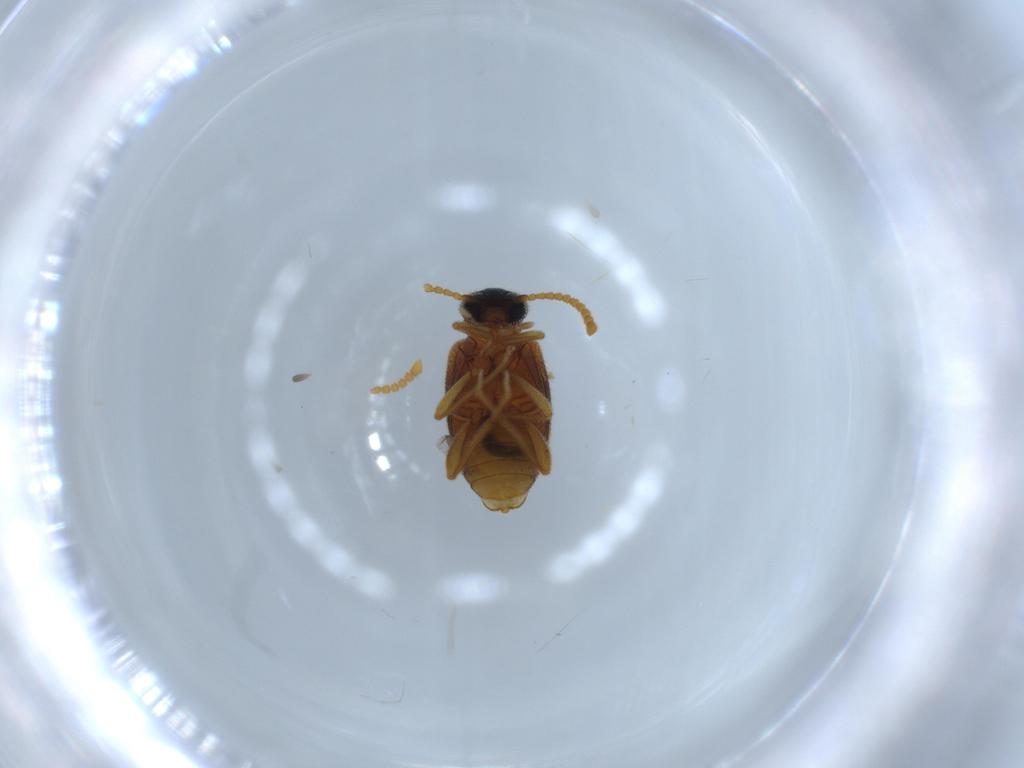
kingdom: Animalia
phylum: Arthropoda
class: Insecta
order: Coleoptera
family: Aderidae
